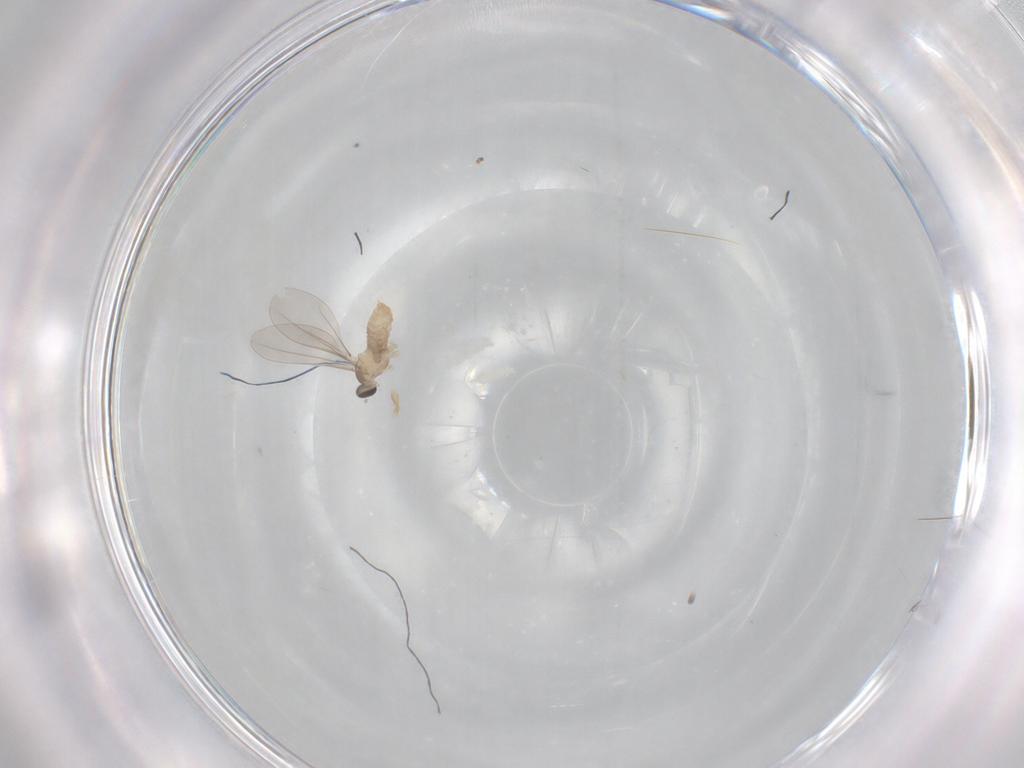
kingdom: Animalia
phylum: Arthropoda
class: Insecta
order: Diptera
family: Cecidomyiidae
